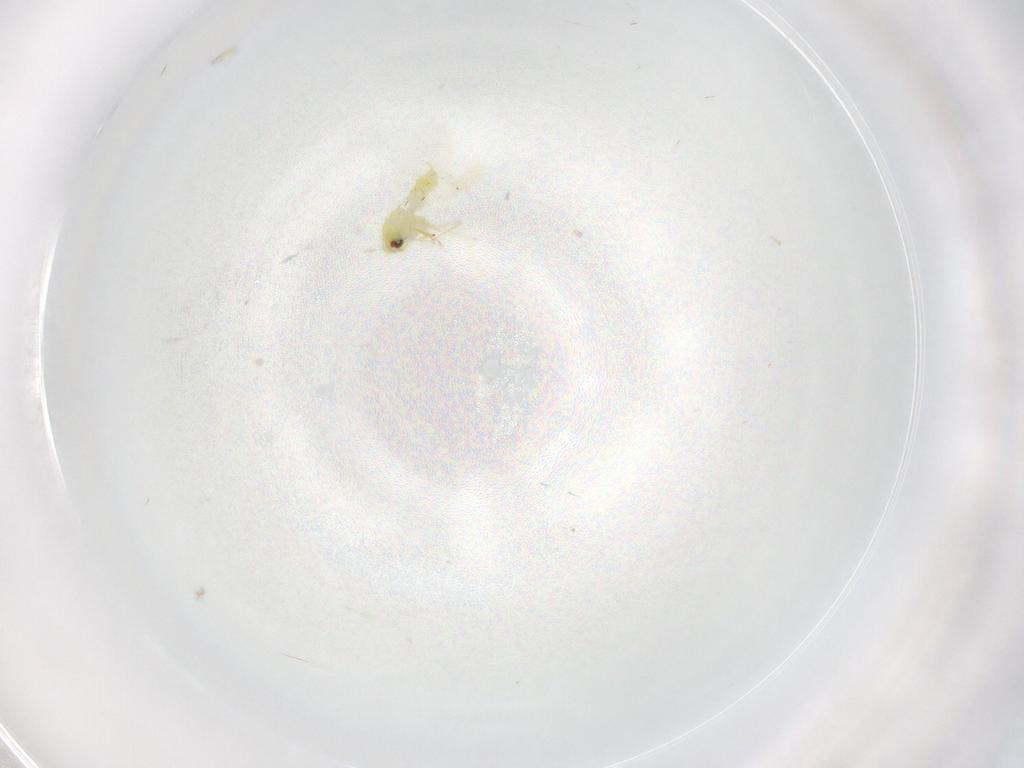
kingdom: Animalia
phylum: Arthropoda
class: Insecta
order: Hemiptera
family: Aleyrodidae
